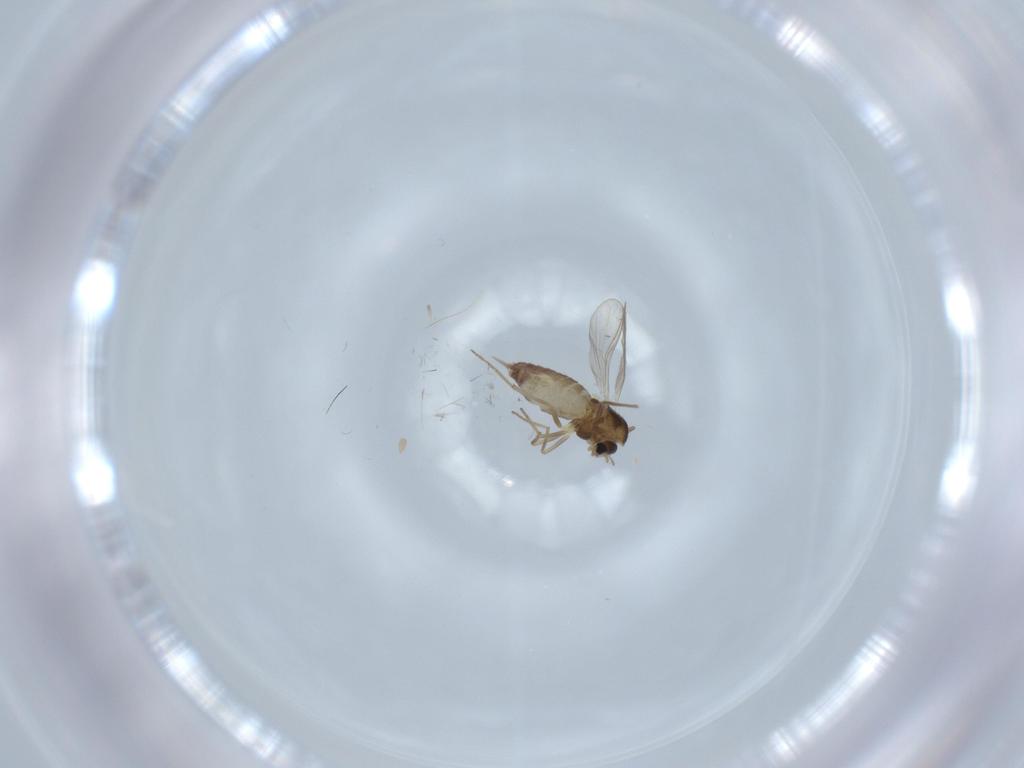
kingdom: Animalia
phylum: Arthropoda
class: Insecta
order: Diptera
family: Chironomidae
